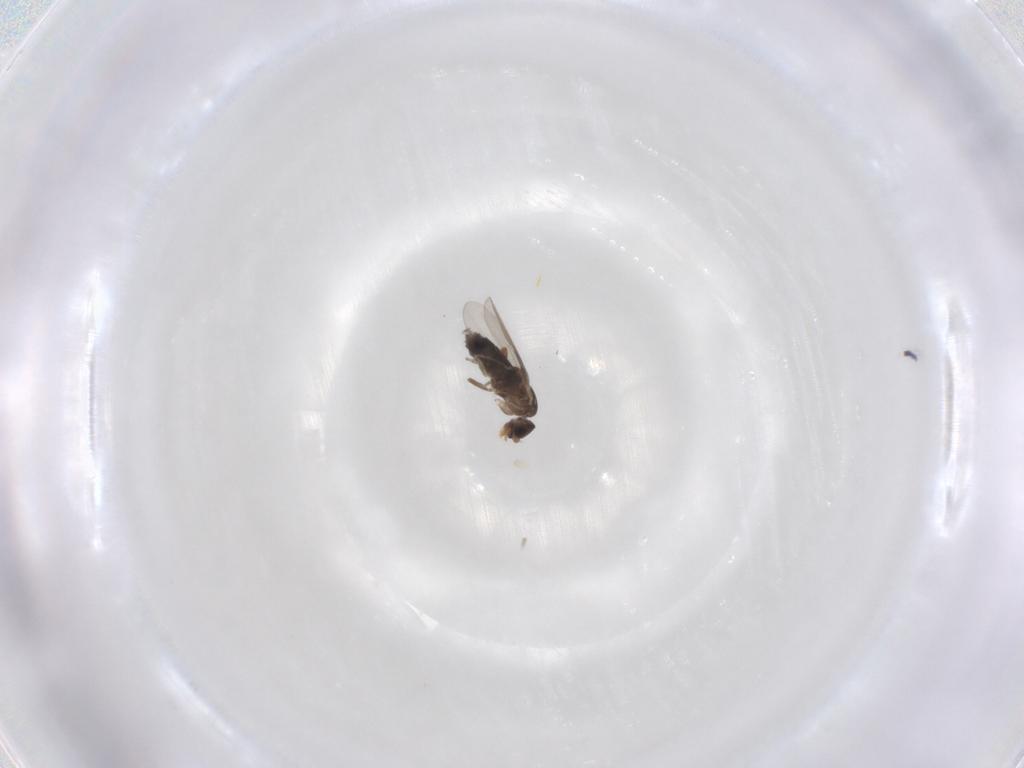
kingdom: Animalia
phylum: Arthropoda
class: Insecta
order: Diptera
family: Phoridae
